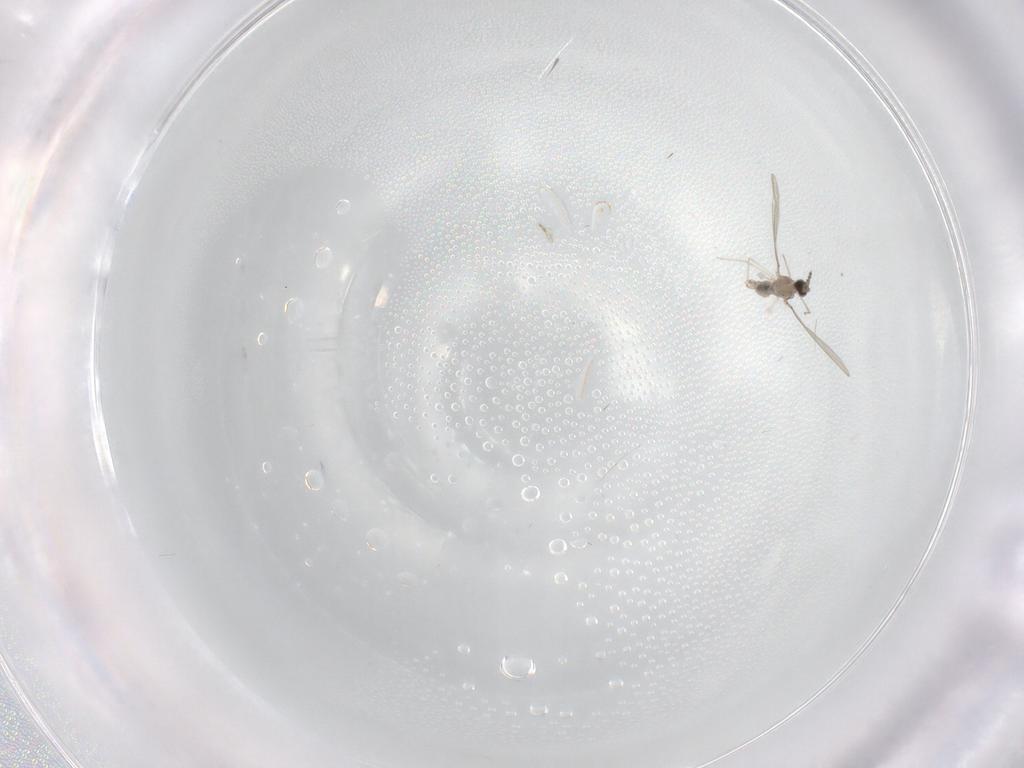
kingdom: Animalia
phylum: Arthropoda
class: Insecta
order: Diptera
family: Cecidomyiidae
